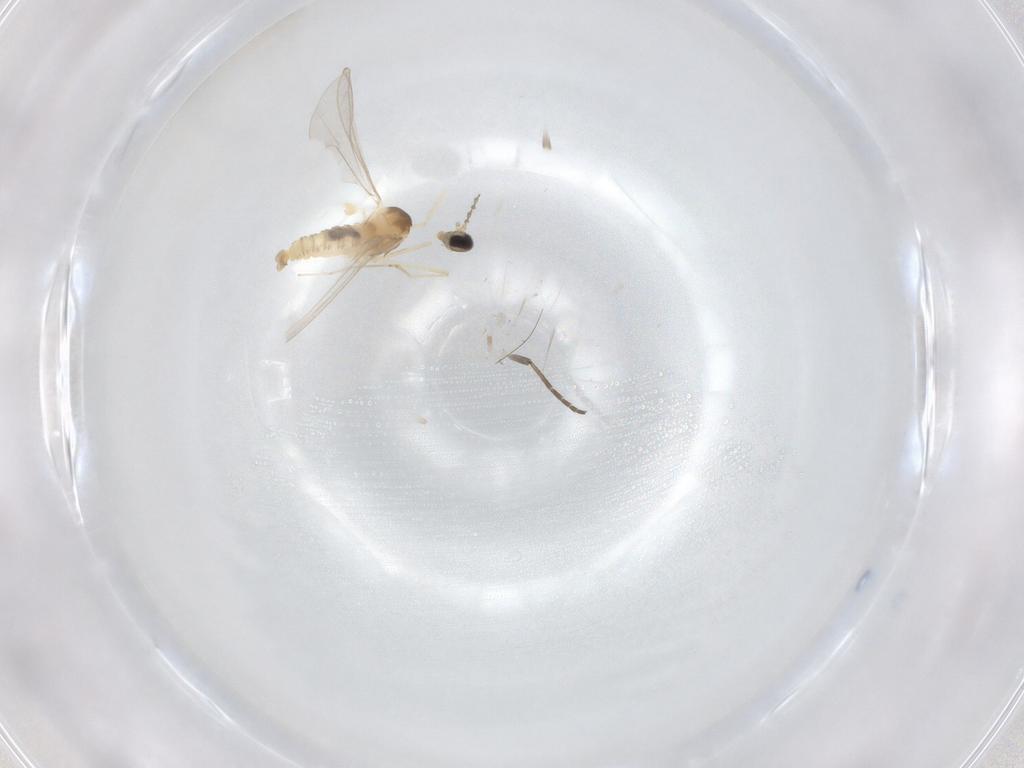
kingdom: Animalia
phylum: Arthropoda
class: Insecta
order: Diptera
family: Cecidomyiidae
